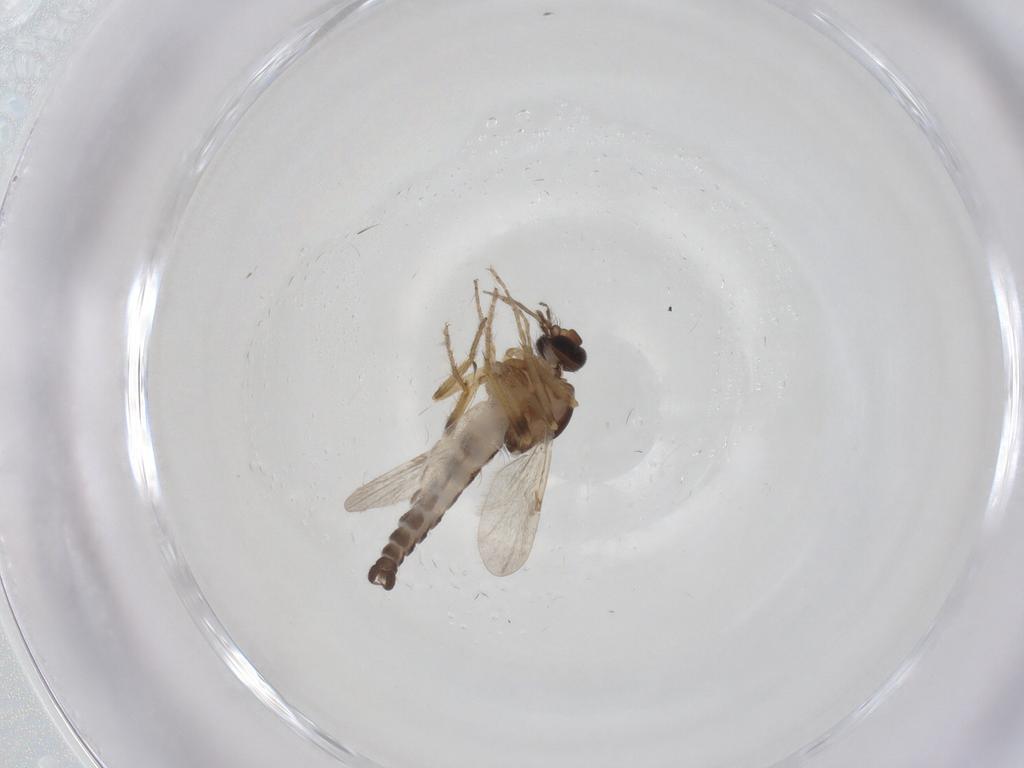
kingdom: Animalia
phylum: Arthropoda
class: Insecta
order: Diptera
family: Ceratopogonidae
